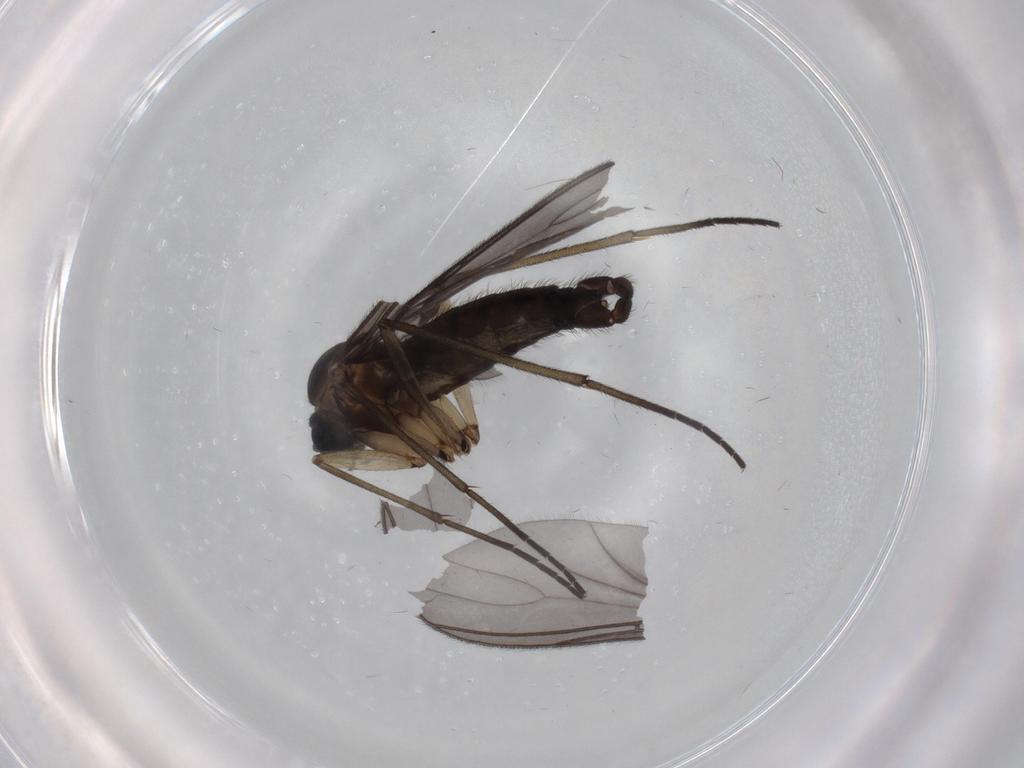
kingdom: Animalia
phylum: Arthropoda
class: Insecta
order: Diptera
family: Sciaridae
